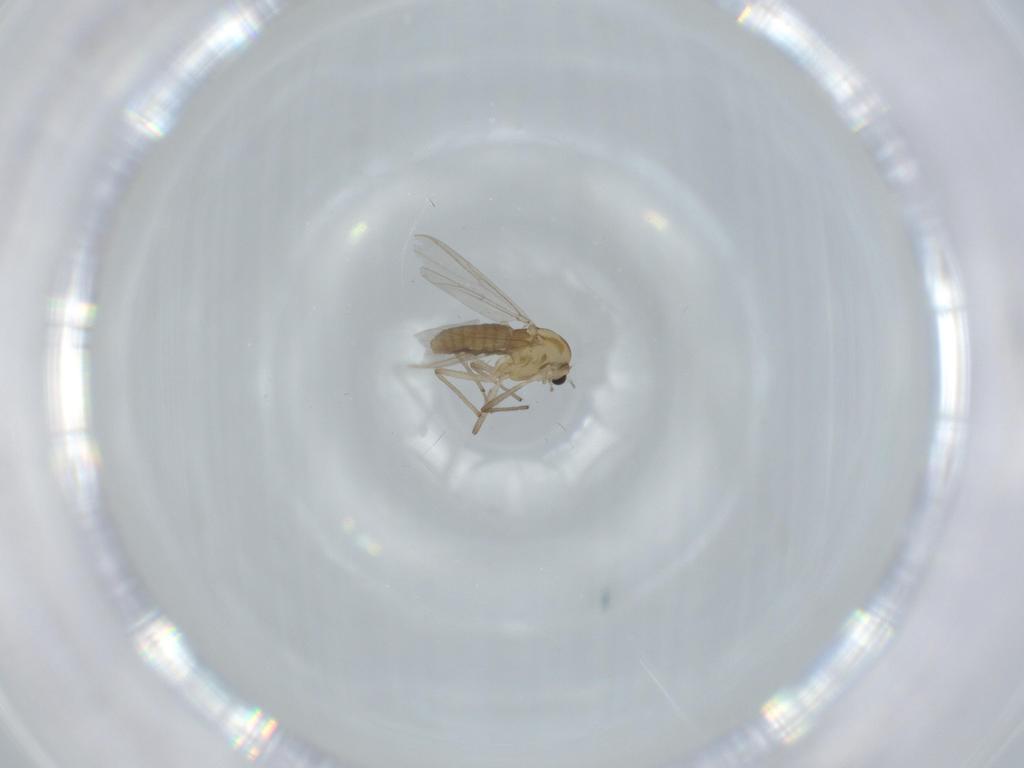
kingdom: Animalia
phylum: Arthropoda
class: Insecta
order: Diptera
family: Chironomidae
